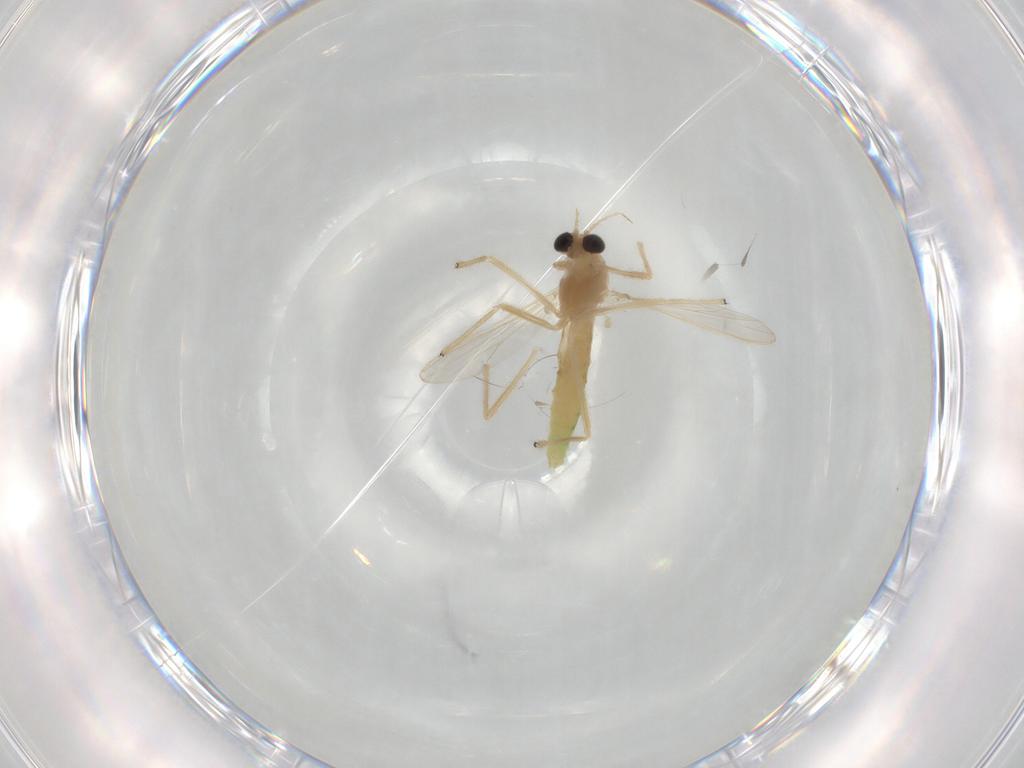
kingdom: Animalia
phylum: Arthropoda
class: Insecta
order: Diptera
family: Chironomidae
